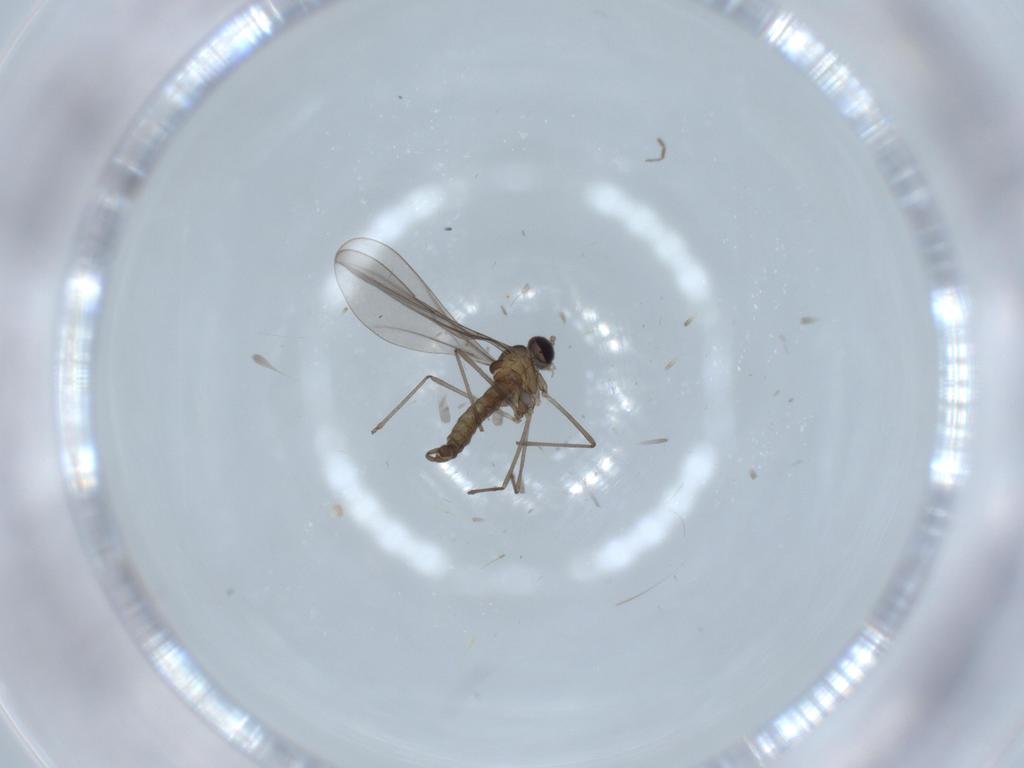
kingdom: Animalia
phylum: Arthropoda
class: Insecta
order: Diptera
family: Cecidomyiidae
